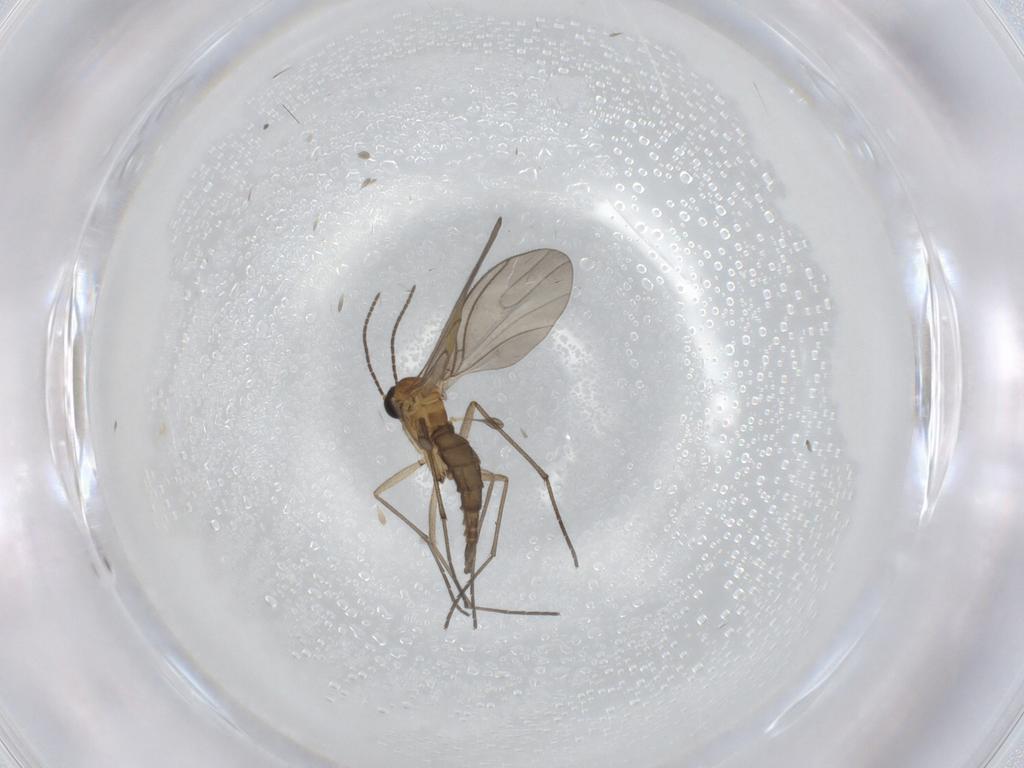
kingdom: Animalia
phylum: Arthropoda
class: Insecta
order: Diptera
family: Sciaridae
